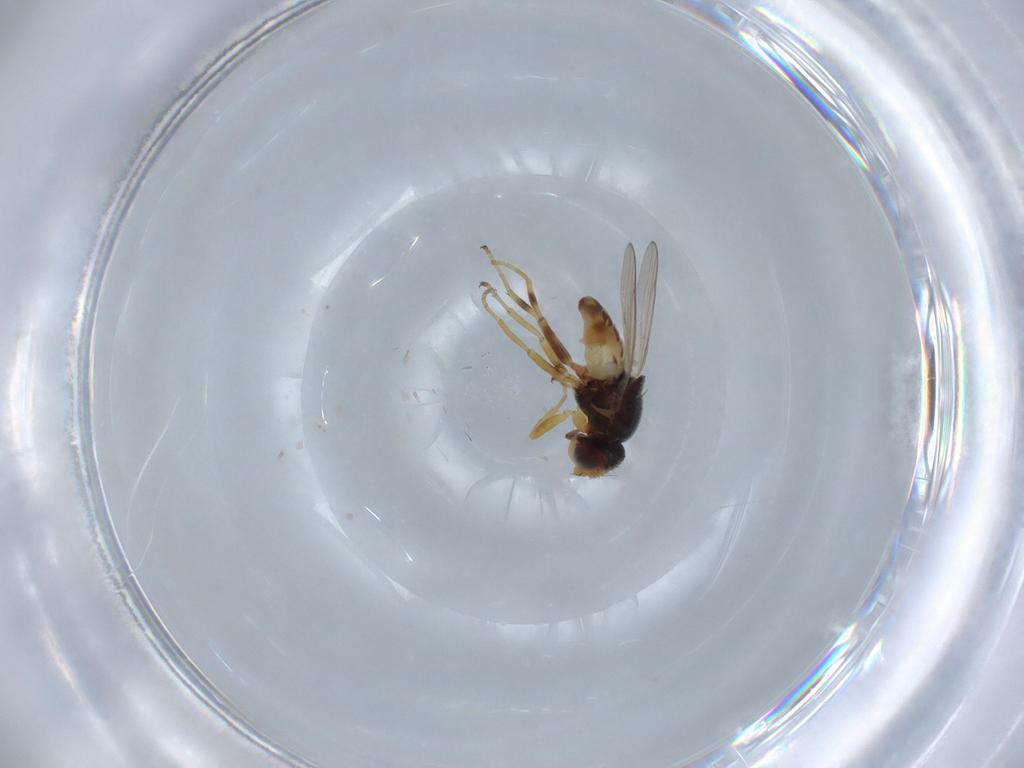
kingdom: Animalia
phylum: Arthropoda
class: Insecta
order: Diptera
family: Chloropidae
